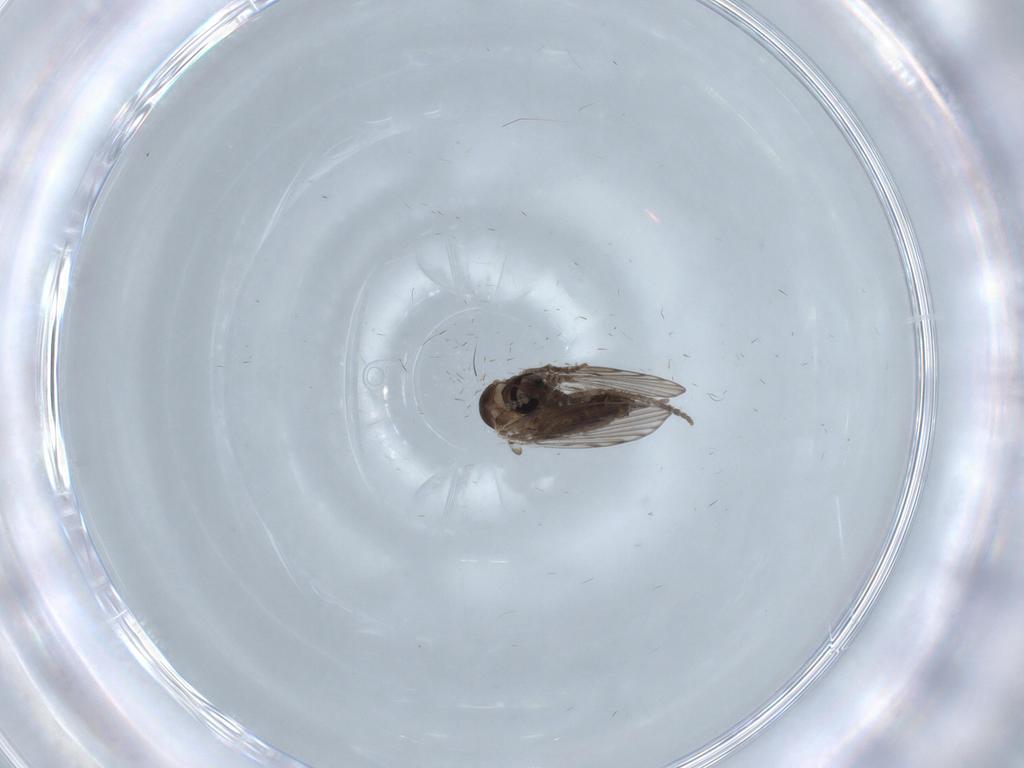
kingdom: Animalia
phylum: Arthropoda
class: Insecta
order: Diptera
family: Psychodidae
